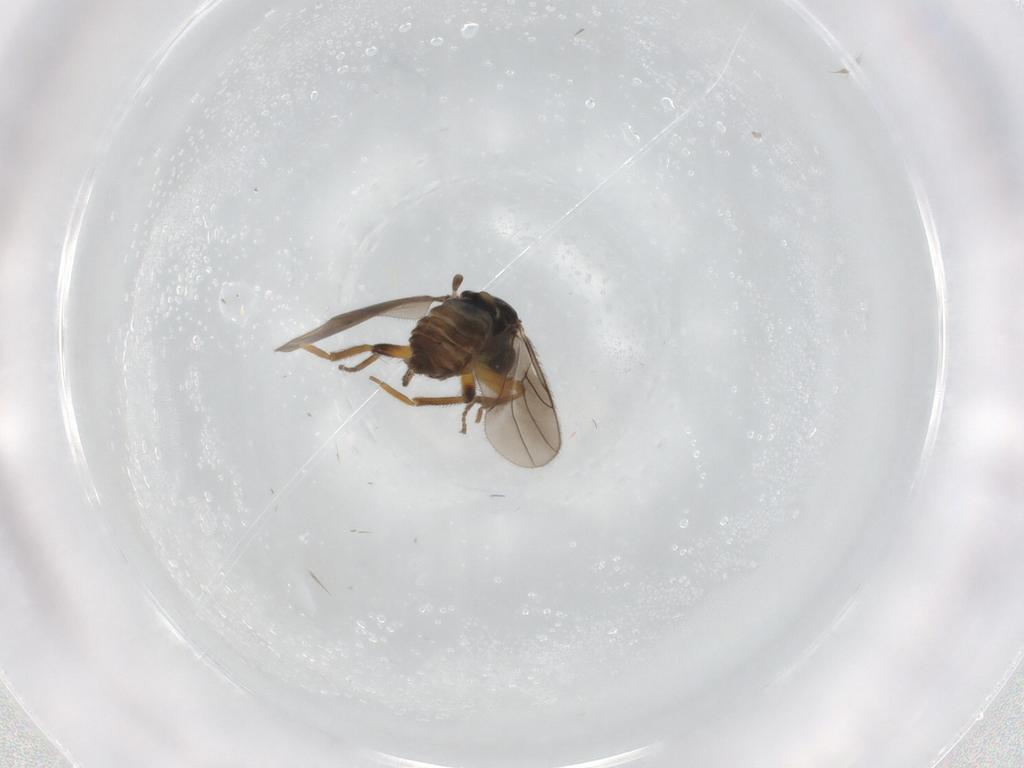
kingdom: Animalia
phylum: Arthropoda
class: Insecta
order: Diptera
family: Hybotidae
